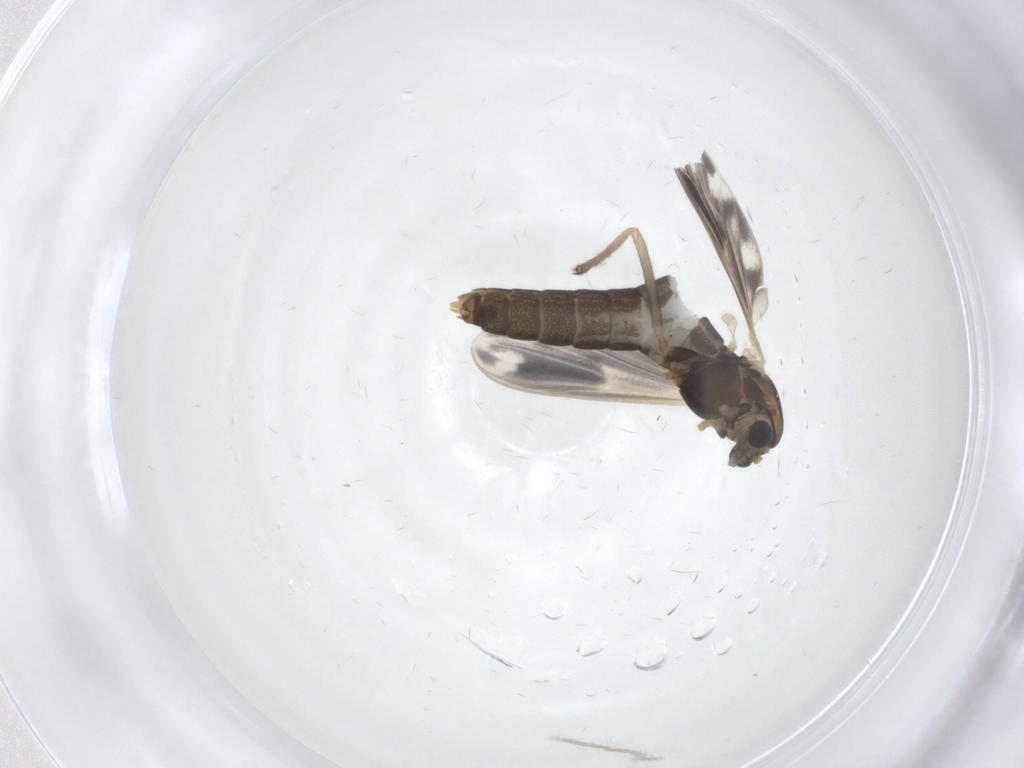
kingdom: Animalia
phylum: Arthropoda
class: Insecta
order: Diptera
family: Chironomidae
